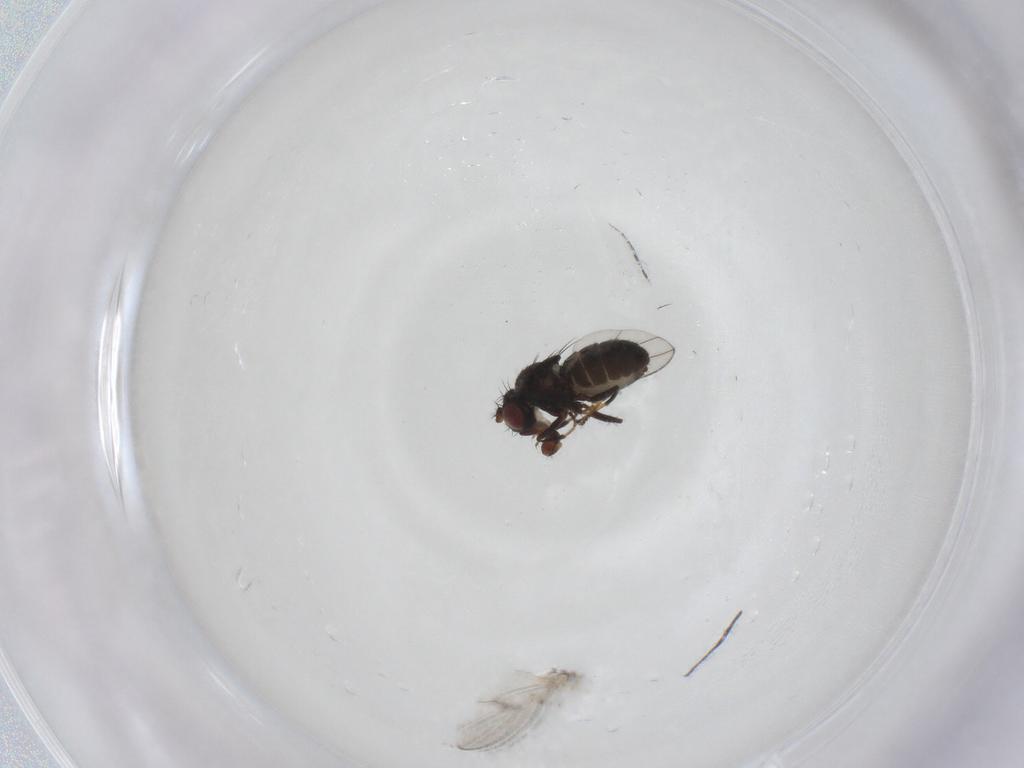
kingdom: Animalia
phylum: Arthropoda
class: Insecta
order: Diptera
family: Ephydridae
